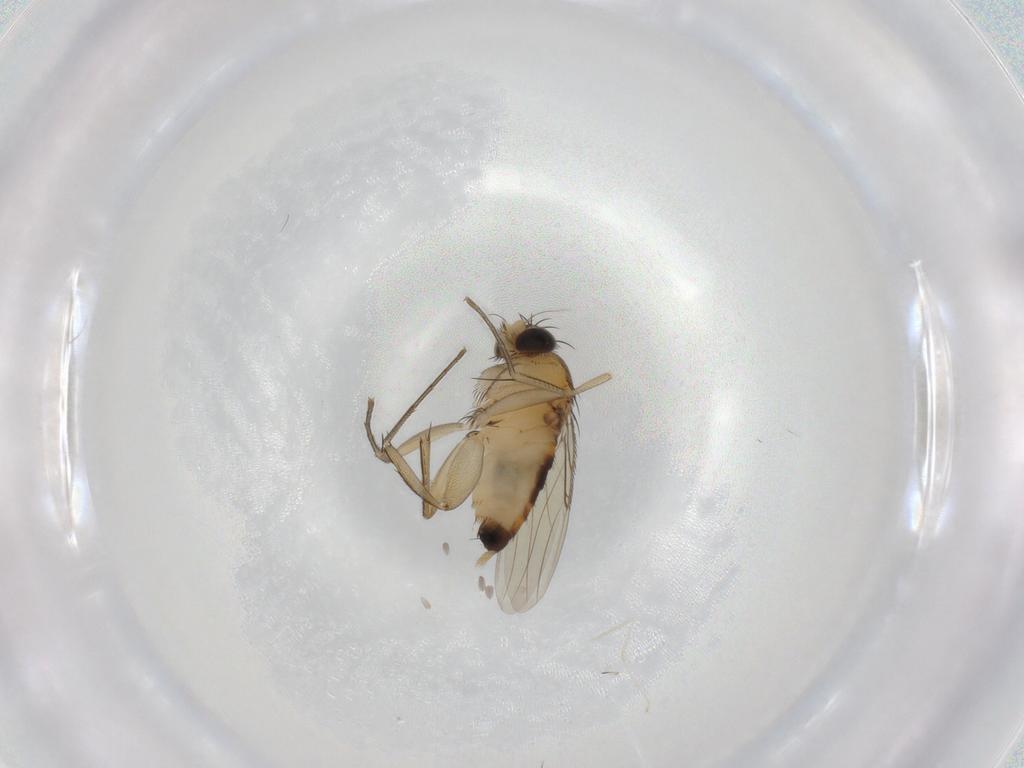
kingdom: Animalia
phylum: Arthropoda
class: Insecta
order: Diptera
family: Phoridae
